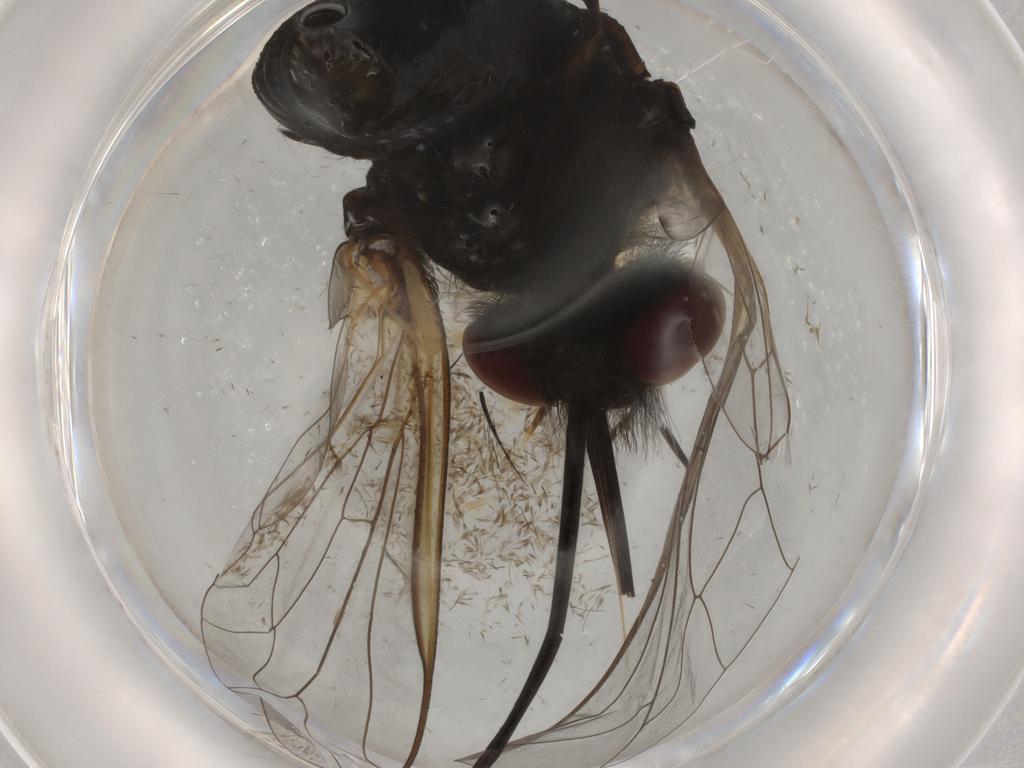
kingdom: Animalia
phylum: Arthropoda
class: Insecta
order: Diptera
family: Bombyliidae
